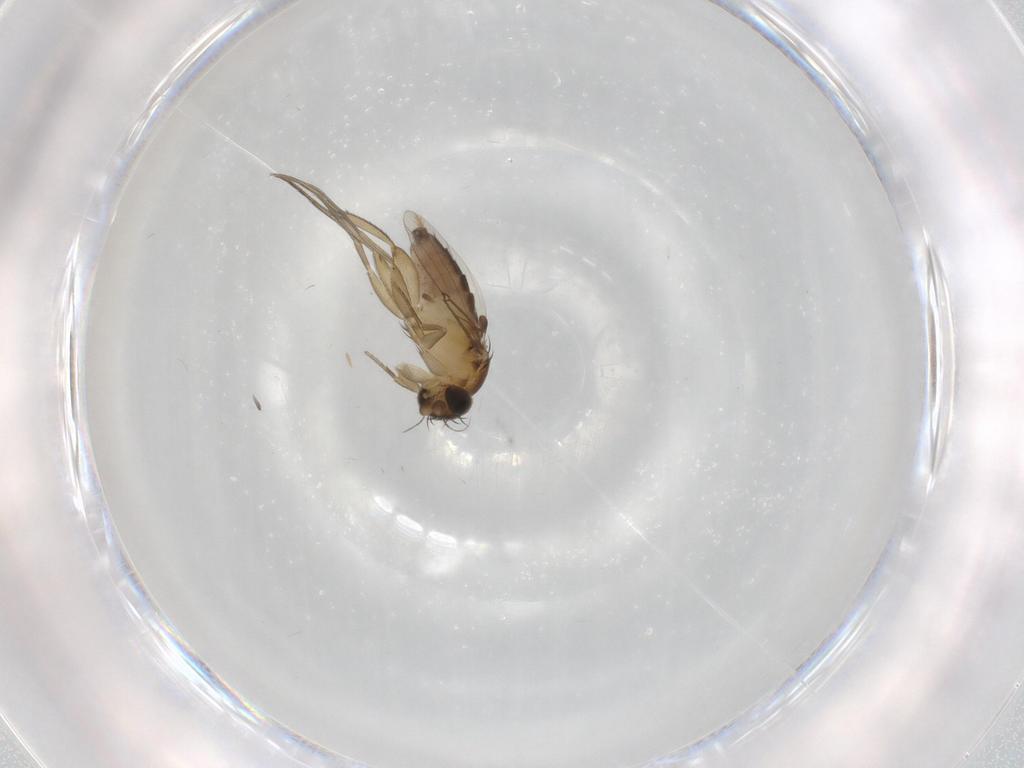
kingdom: Animalia
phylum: Arthropoda
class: Insecta
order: Diptera
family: Phoridae
